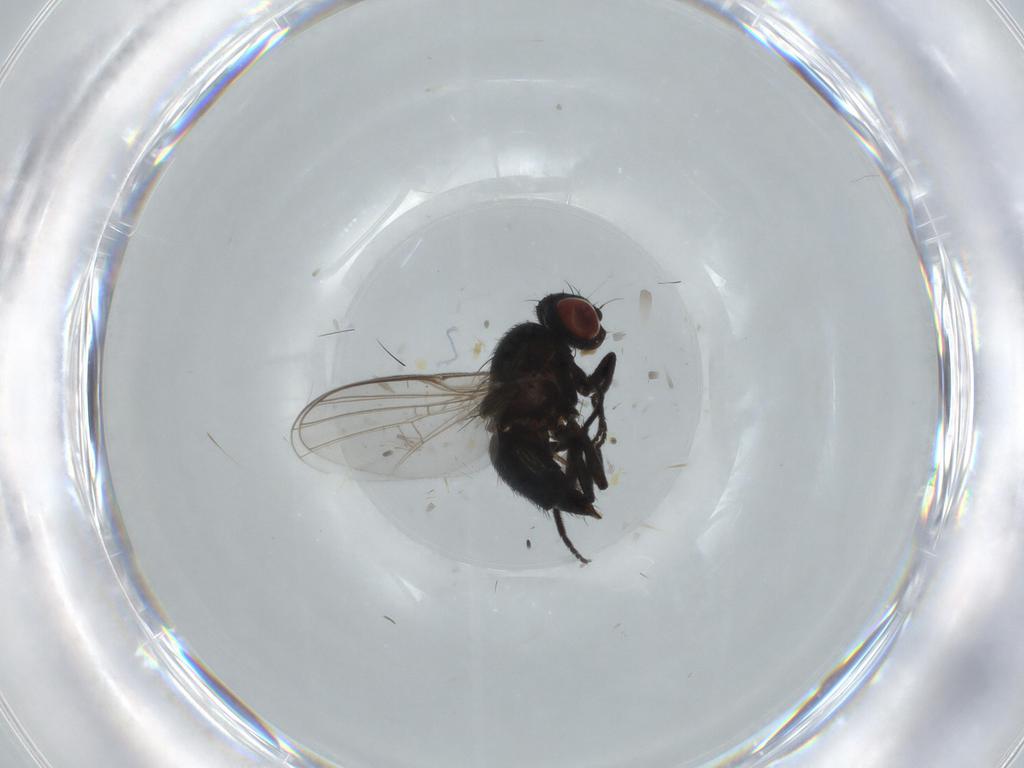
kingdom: Animalia
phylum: Arthropoda
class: Insecta
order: Diptera
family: Agromyzidae
